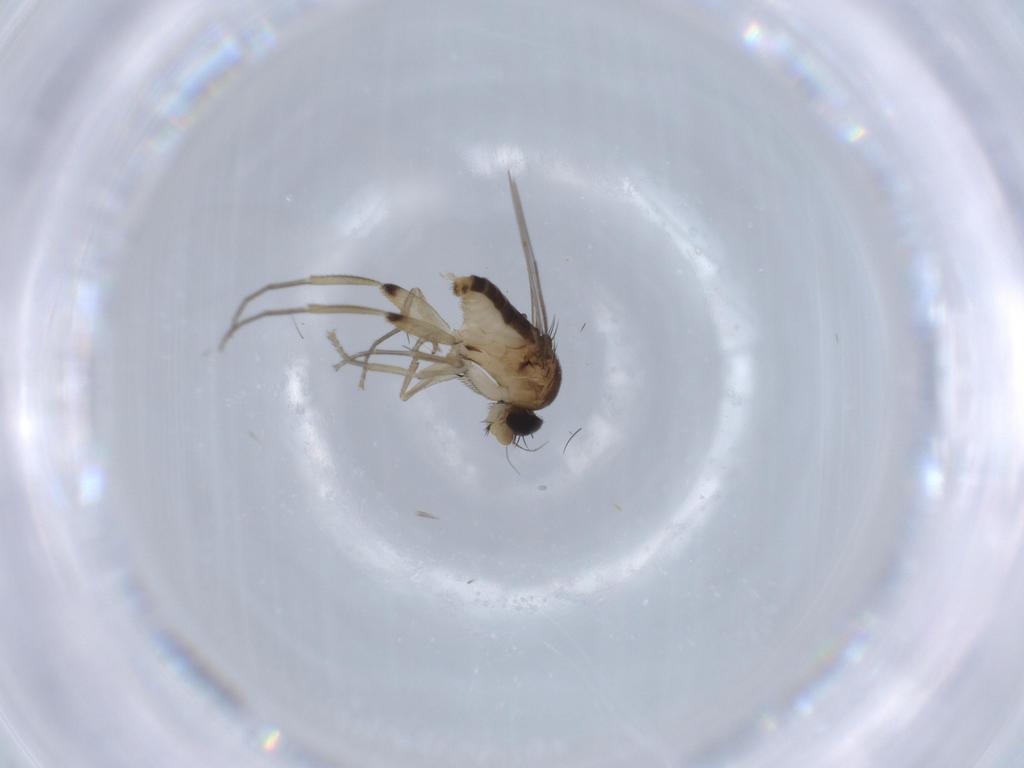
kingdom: Animalia
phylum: Arthropoda
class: Insecta
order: Diptera
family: Phoridae
